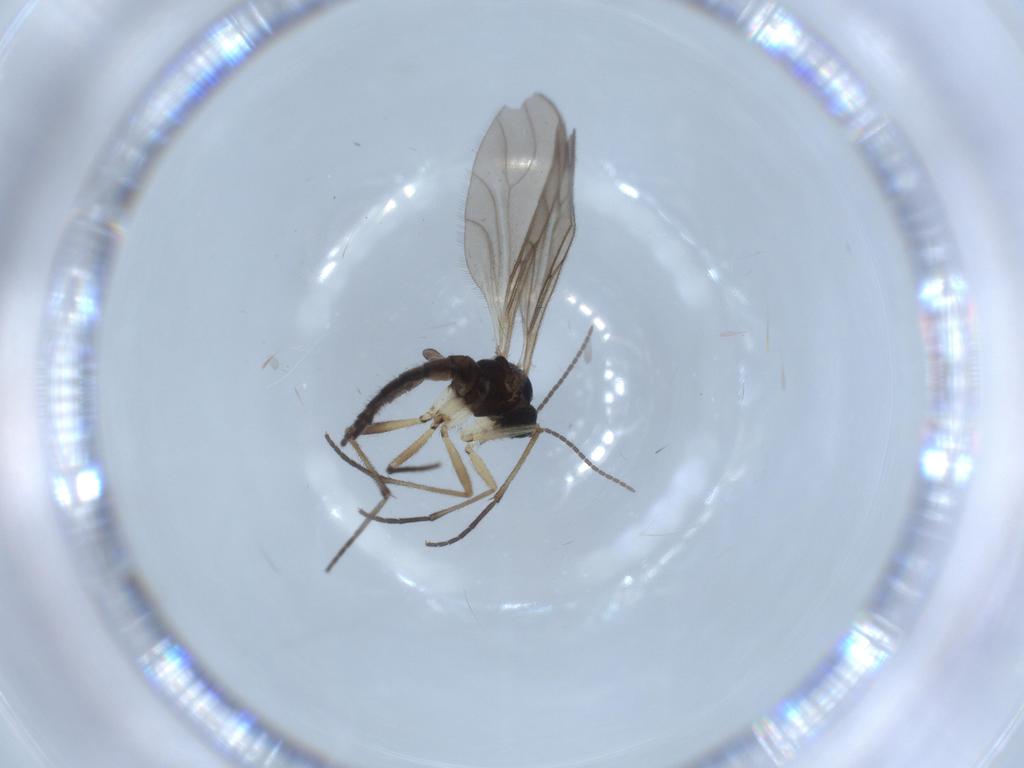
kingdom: Animalia
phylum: Arthropoda
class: Insecta
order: Diptera
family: Sciaridae
